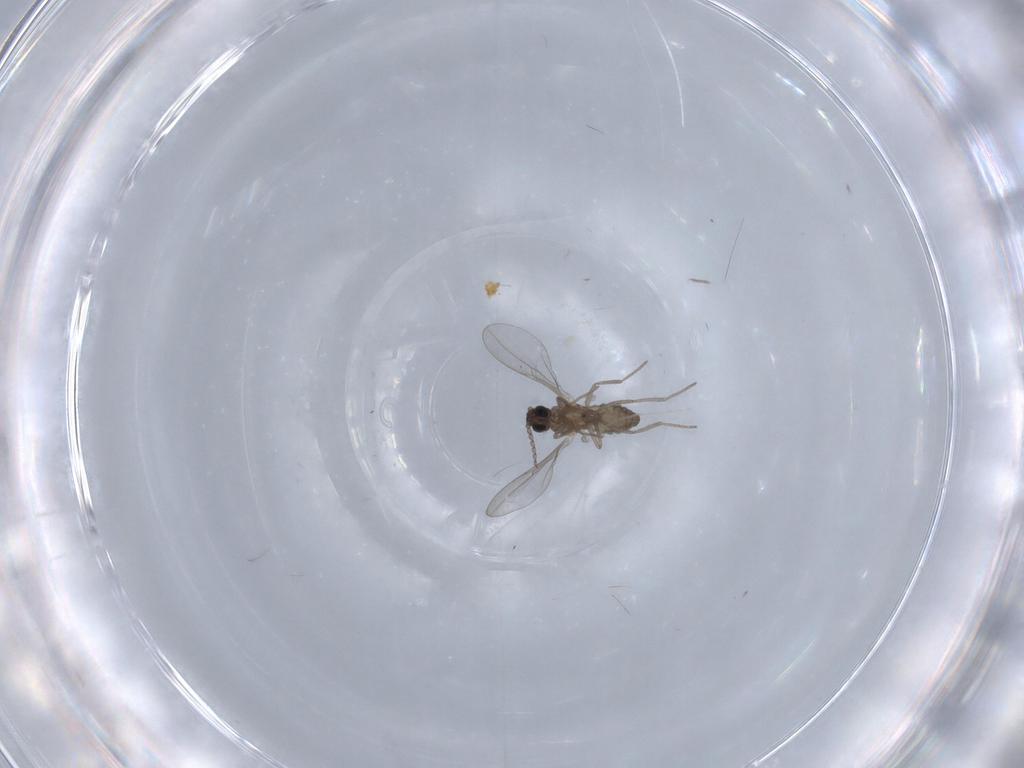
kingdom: Animalia
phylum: Arthropoda
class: Insecta
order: Diptera
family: Cecidomyiidae
